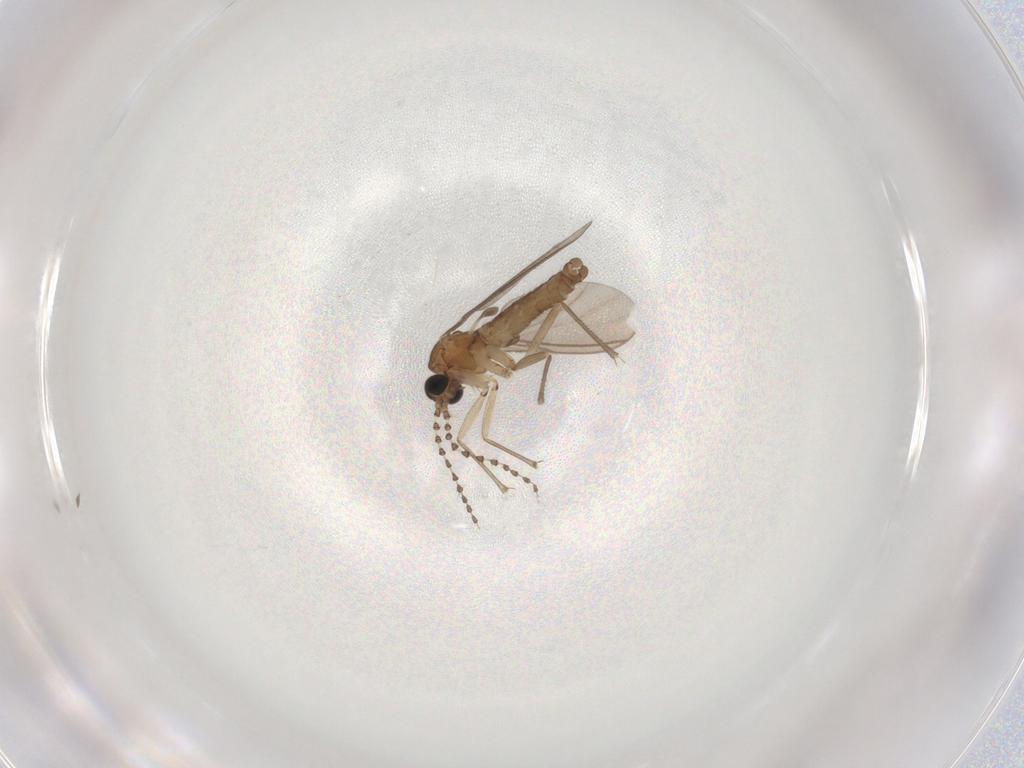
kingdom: Animalia
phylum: Arthropoda
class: Insecta
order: Diptera
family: Sciaridae
